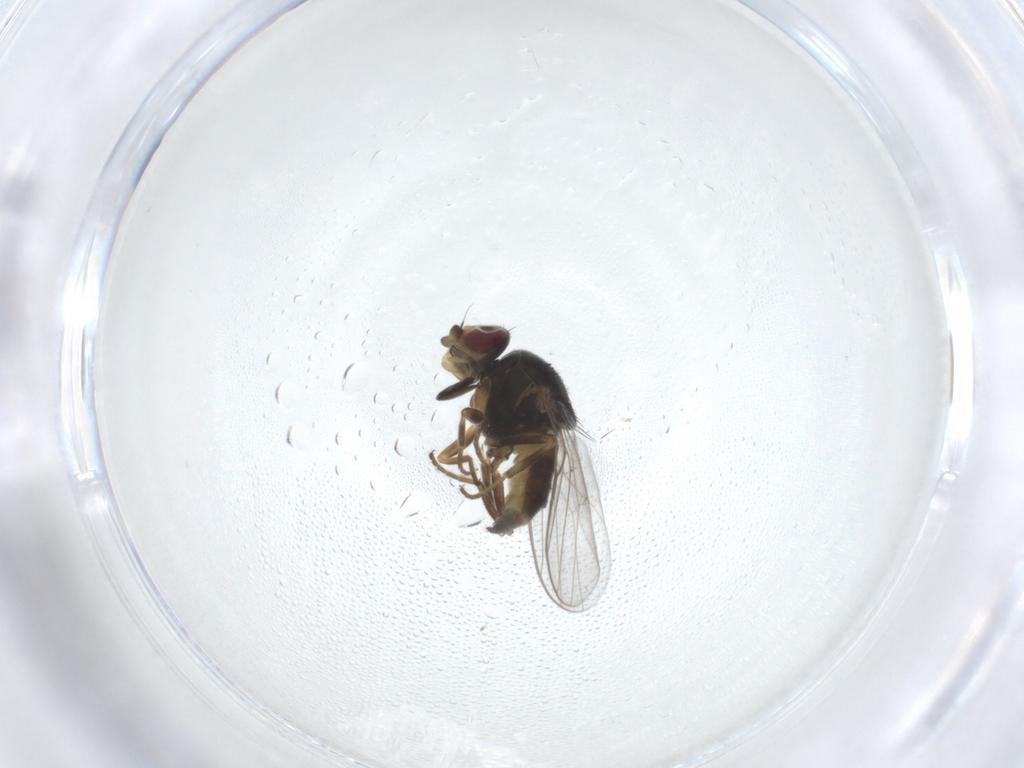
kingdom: Animalia
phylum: Arthropoda
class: Insecta
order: Diptera
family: Chloropidae
